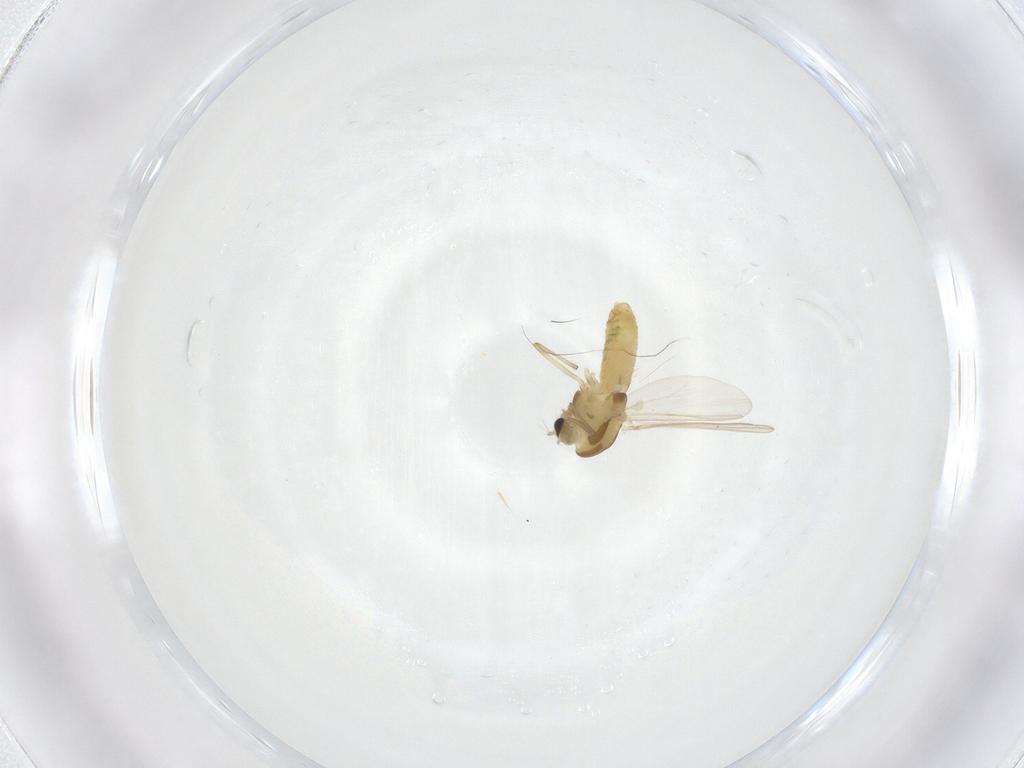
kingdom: Animalia
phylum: Arthropoda
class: Insecta
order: Diptera
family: Chironomidae
